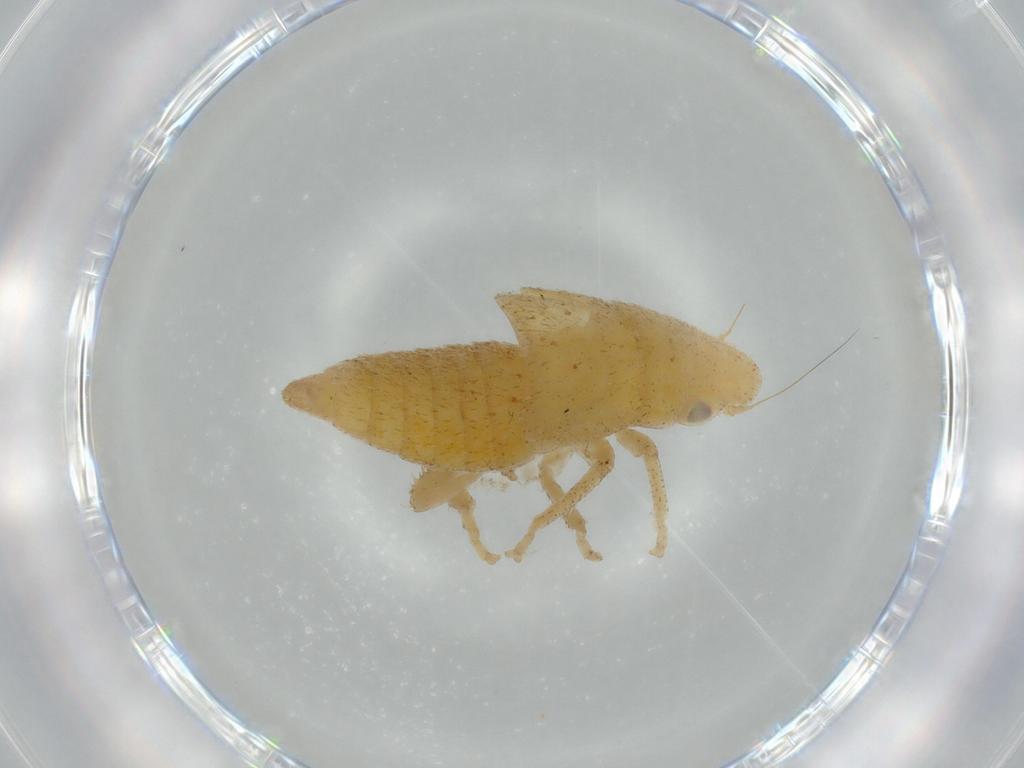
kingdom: Animalia
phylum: Arthropoda
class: Insecta
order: Hemiptera
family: Cicadellidae
